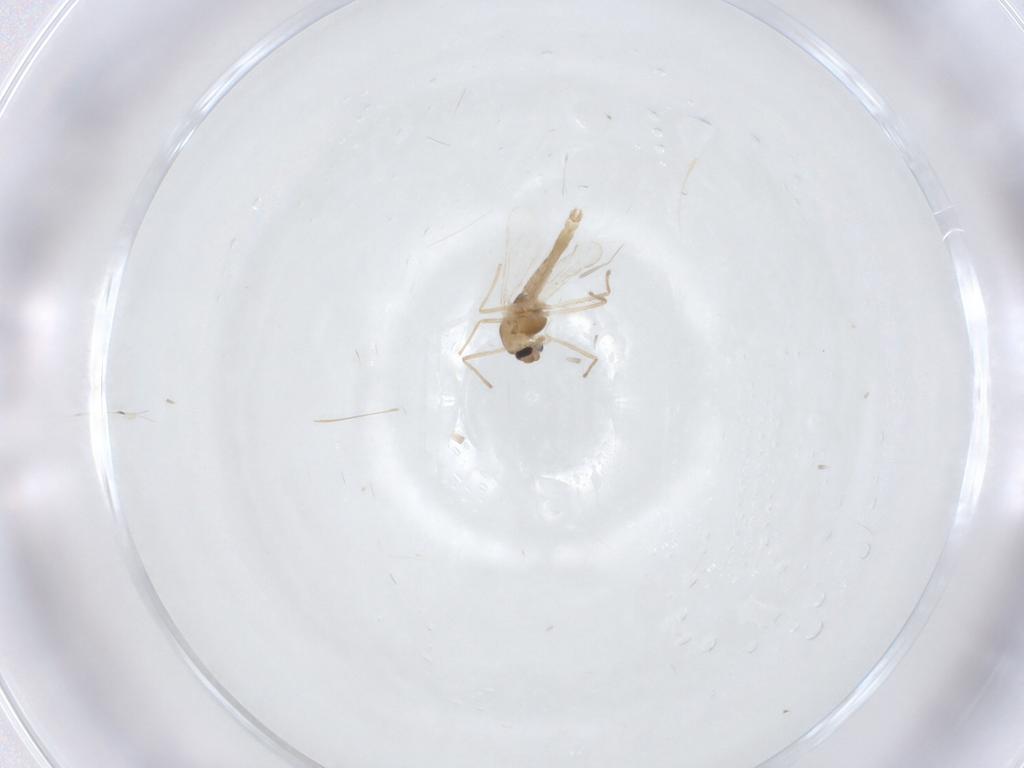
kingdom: Animalia
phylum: Arthropoda
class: Insecta
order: Diptera
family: Chironomidae
